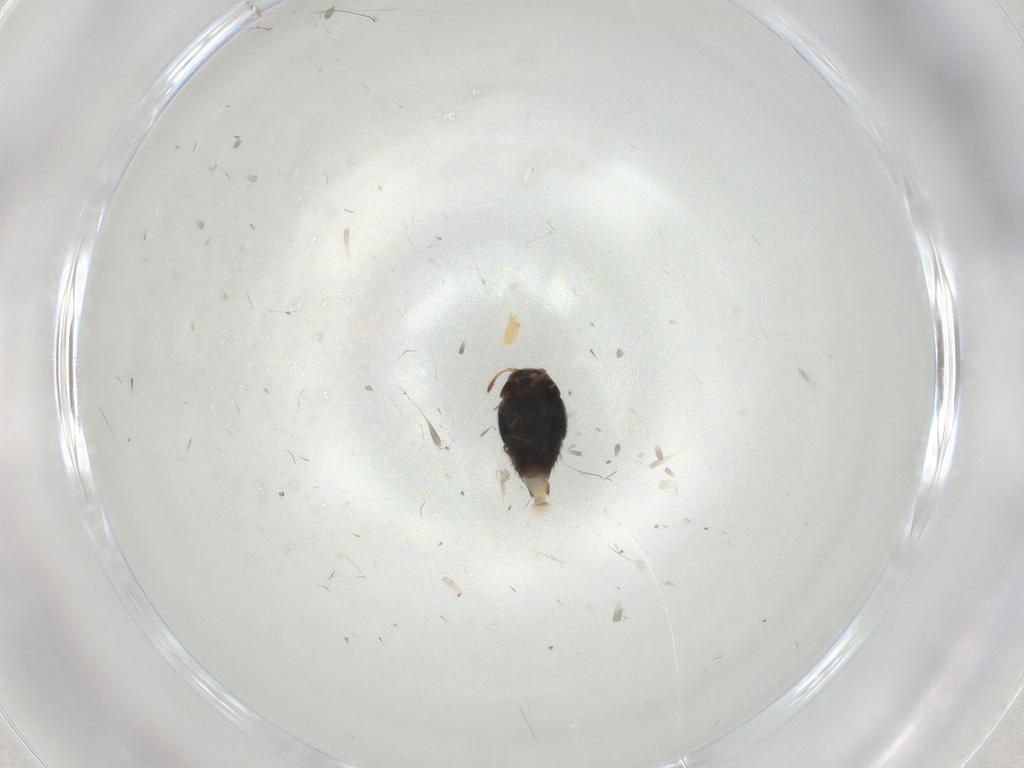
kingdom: Animalia
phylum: Arthropoda
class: Insecta
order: Coleoptera
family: Staphylinidae
